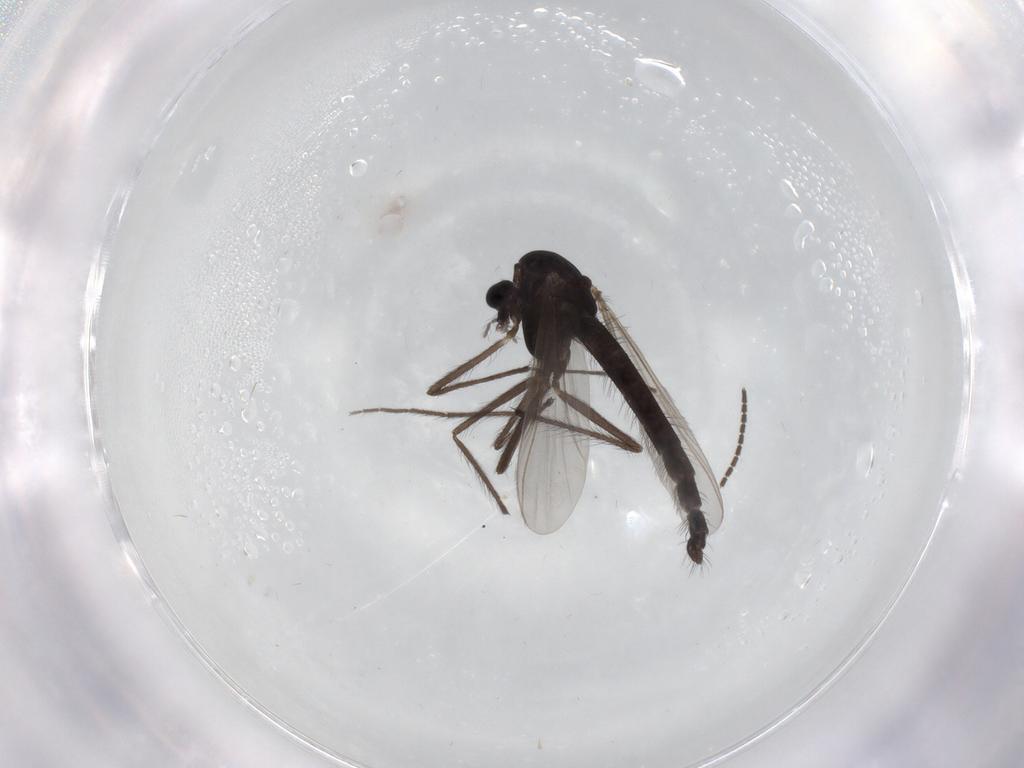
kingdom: Animalia
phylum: Arthropoda
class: Insecta
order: Diptera
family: Chironomidae
